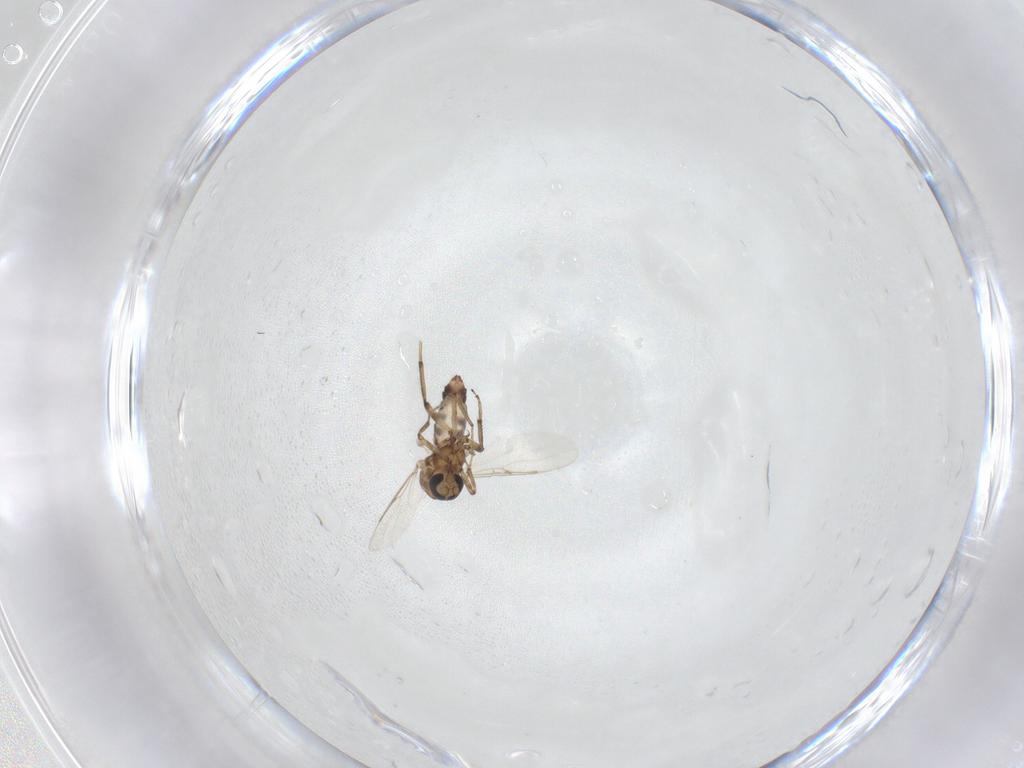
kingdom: Animalia
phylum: Arthropoda
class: Insecta
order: Diptera
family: Ceratopogonidae
